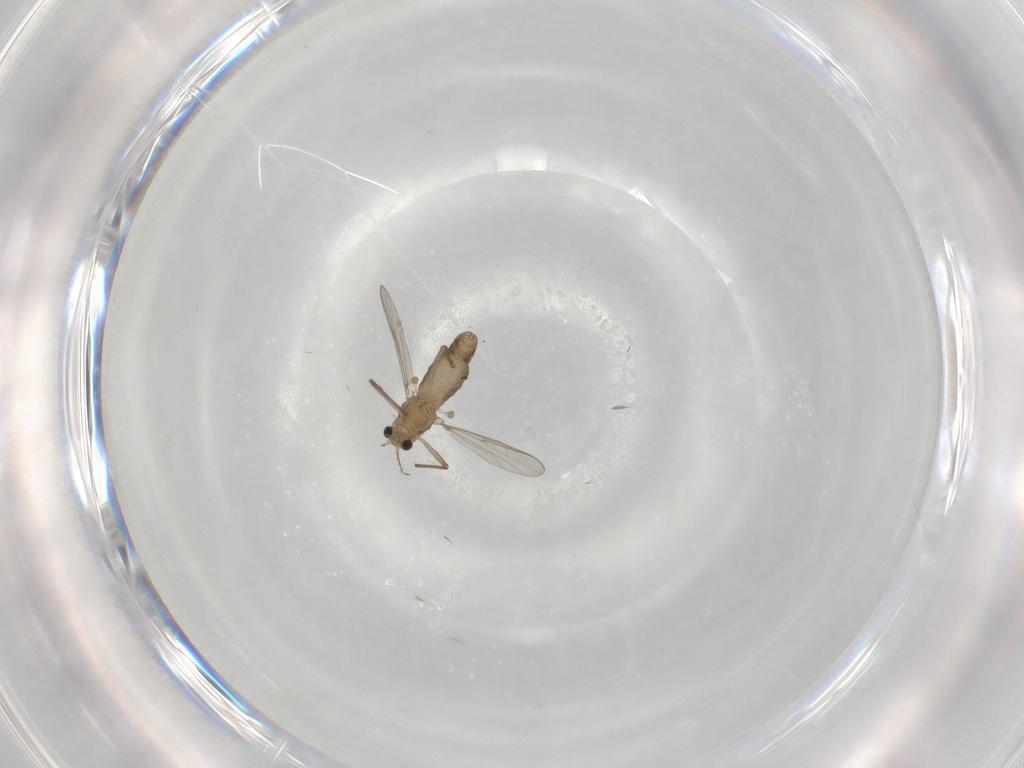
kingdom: Animalia
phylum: Arthropoda
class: Insecta
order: Diptera
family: Chironomidae
